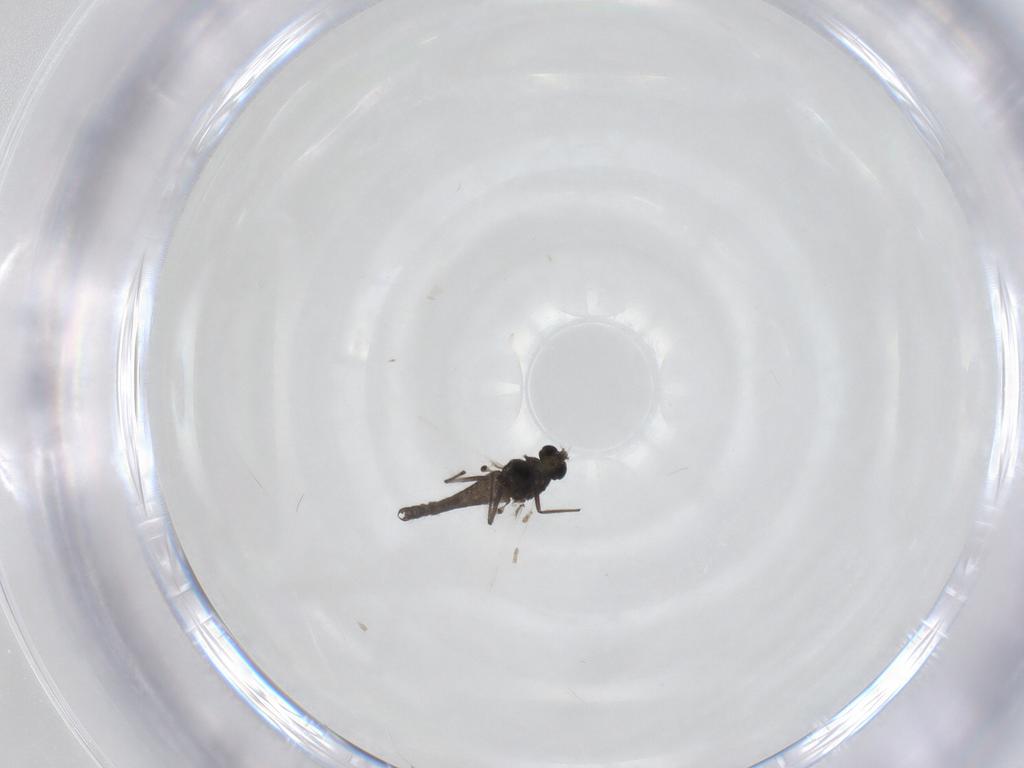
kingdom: Animalia
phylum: Arthropoda
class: Insecta
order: Diptera
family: Chironomidae
